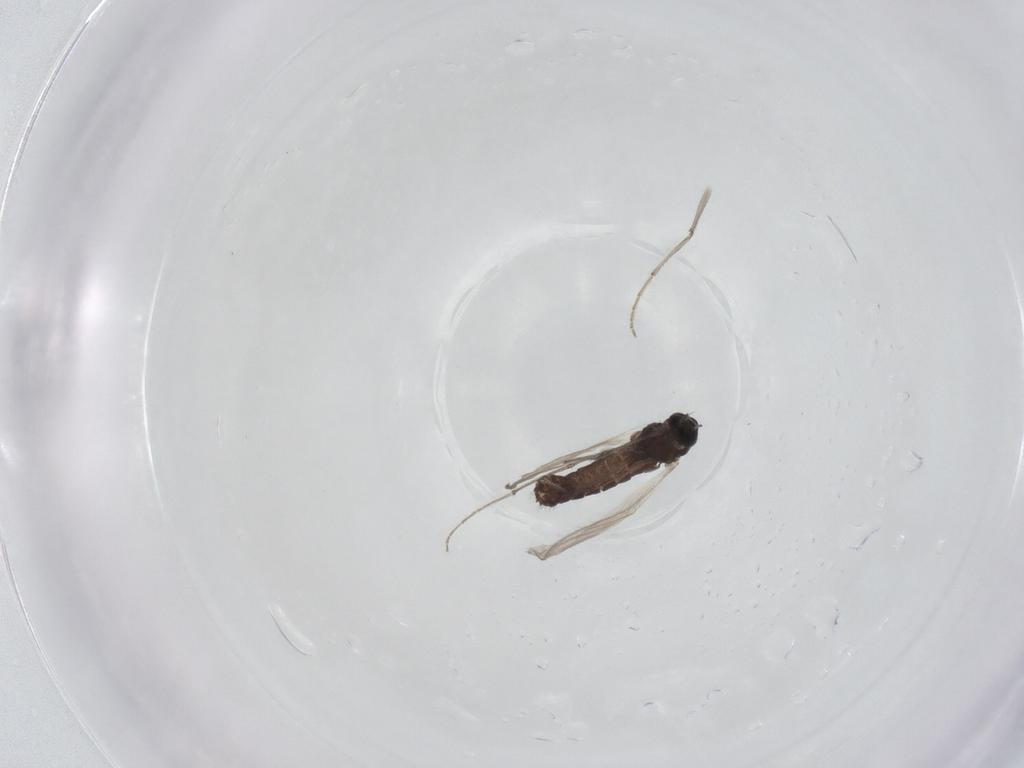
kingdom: Animalia
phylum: Arthropoda
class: Insecta
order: Diptera
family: Chironomidae
